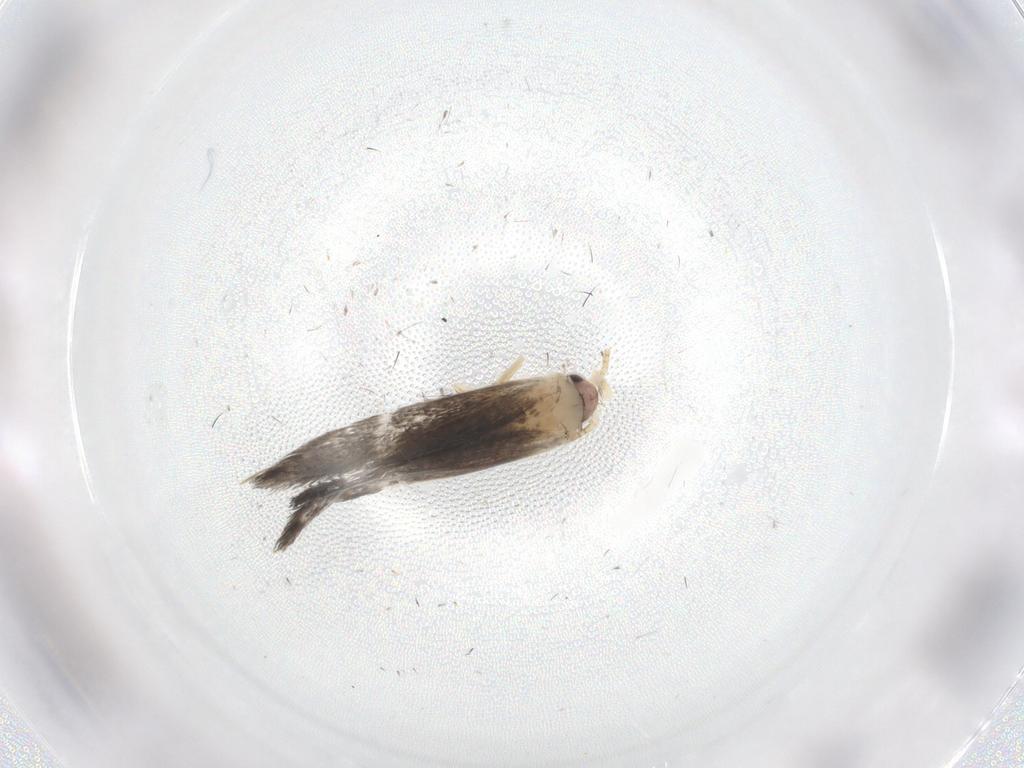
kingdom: Animalia
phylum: Arthropoda
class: Insecta
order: Lepidoptera
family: Tineidae
